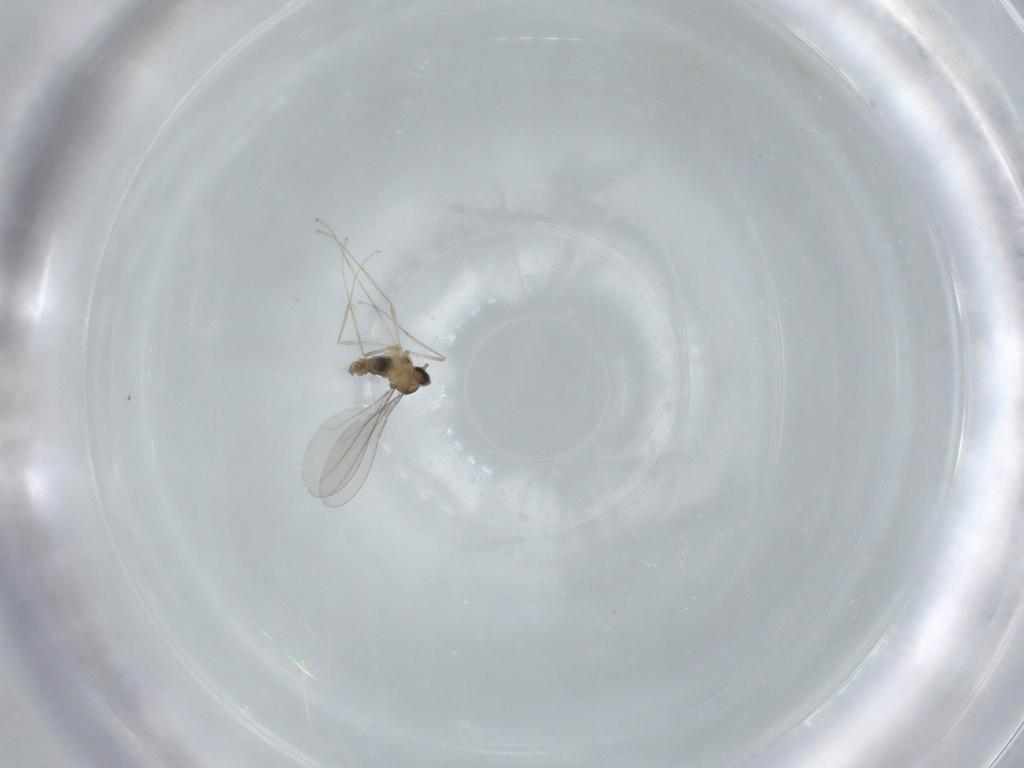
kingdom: Animalia
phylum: Arthropoda
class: Insecta
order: Diptera
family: Cecidomyiidae
